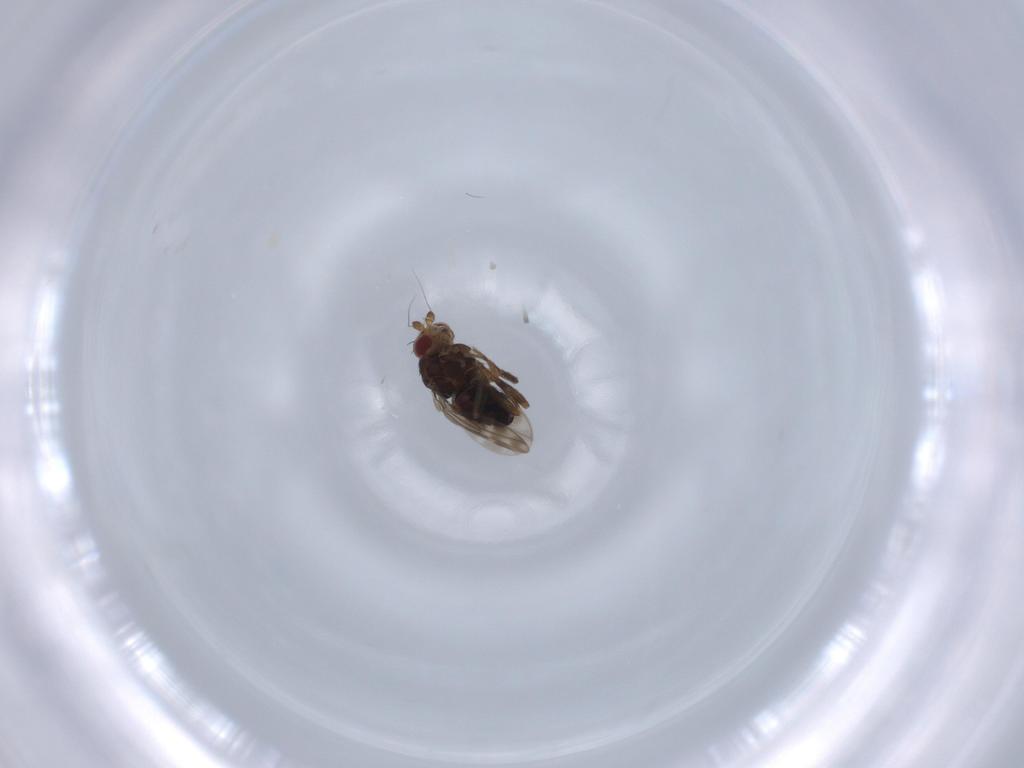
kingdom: Animalia
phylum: Arthropoda
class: Insecta
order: Diptera
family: Sphaeroceridae
